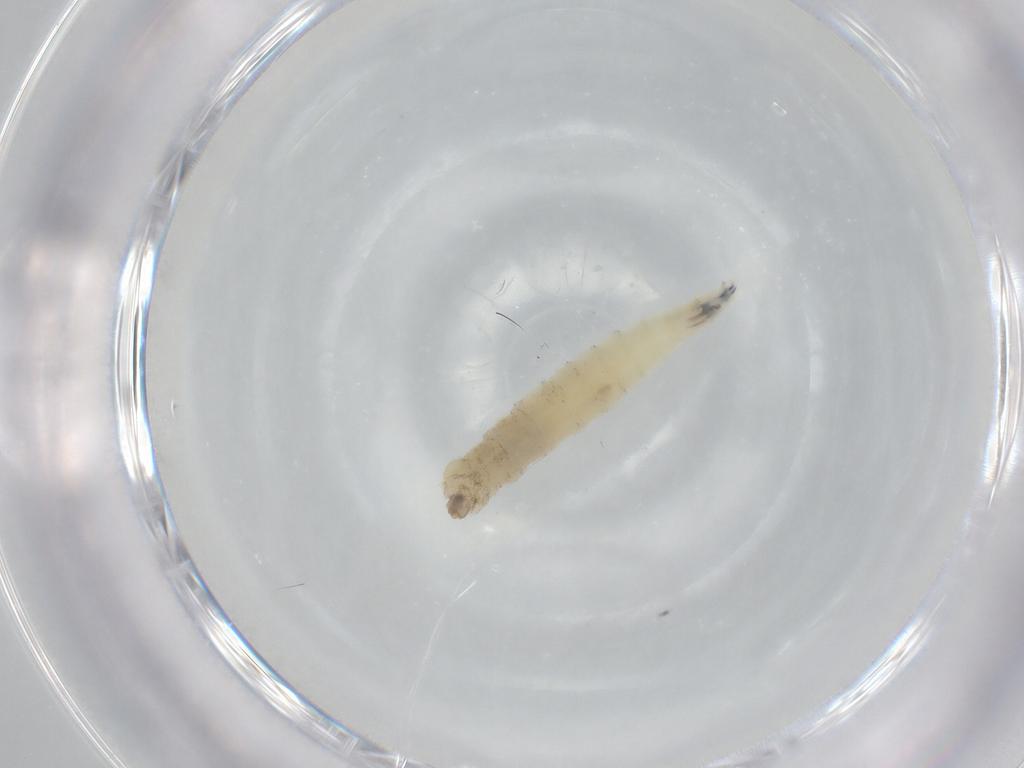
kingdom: Animalia
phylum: Arthropoda
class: Insecta
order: Diptera
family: Drosophilidae
